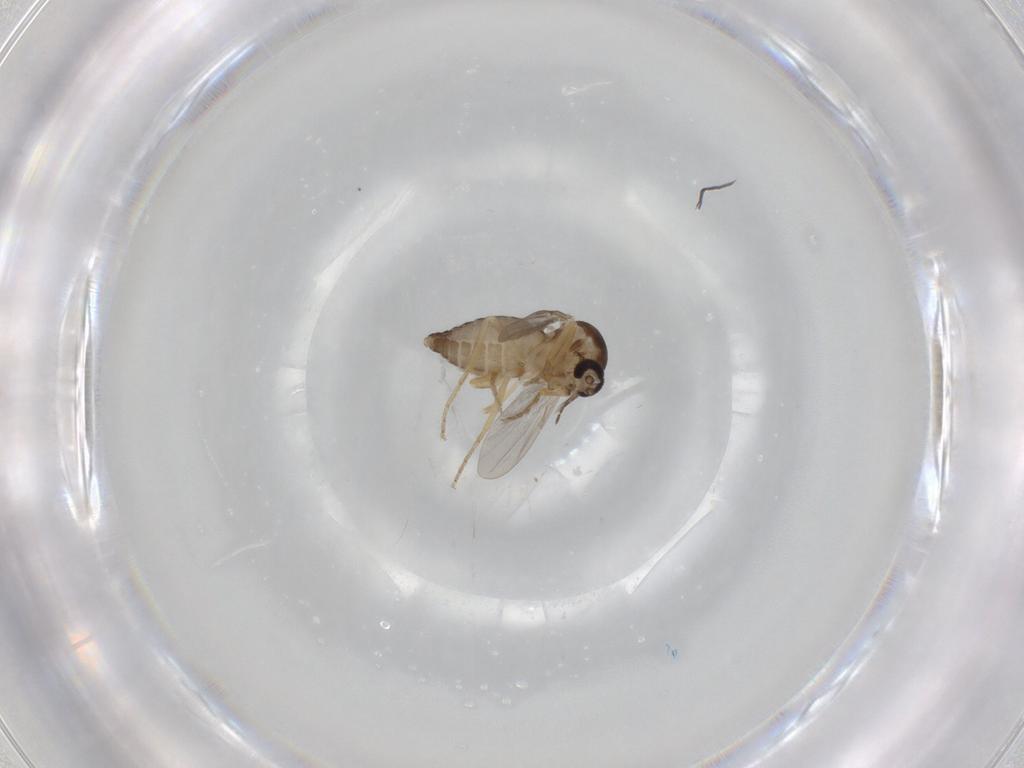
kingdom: Animalia
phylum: Arthropoda
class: Insecta
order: Diptera
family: Ceratopogonidae
